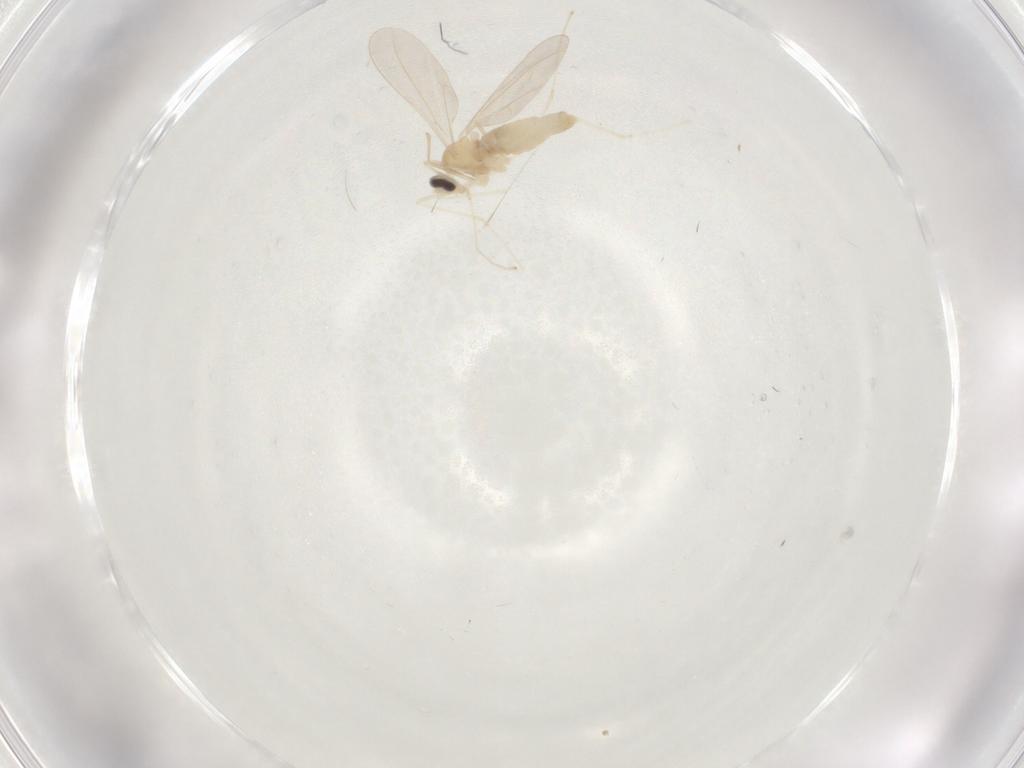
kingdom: Animalia
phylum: Arthropoda
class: Insecta
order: Diptera
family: Cecidomyiidae
